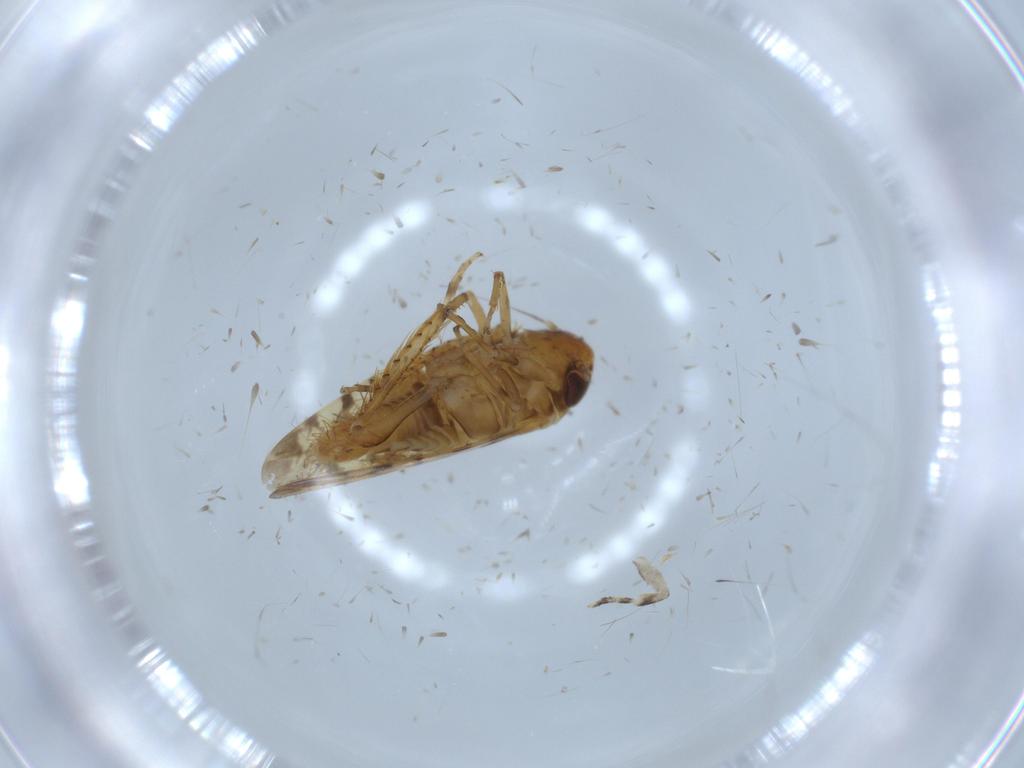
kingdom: Animalia
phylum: Arthropoda
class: Insecta
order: Hemiptera
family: Cicadellidae
